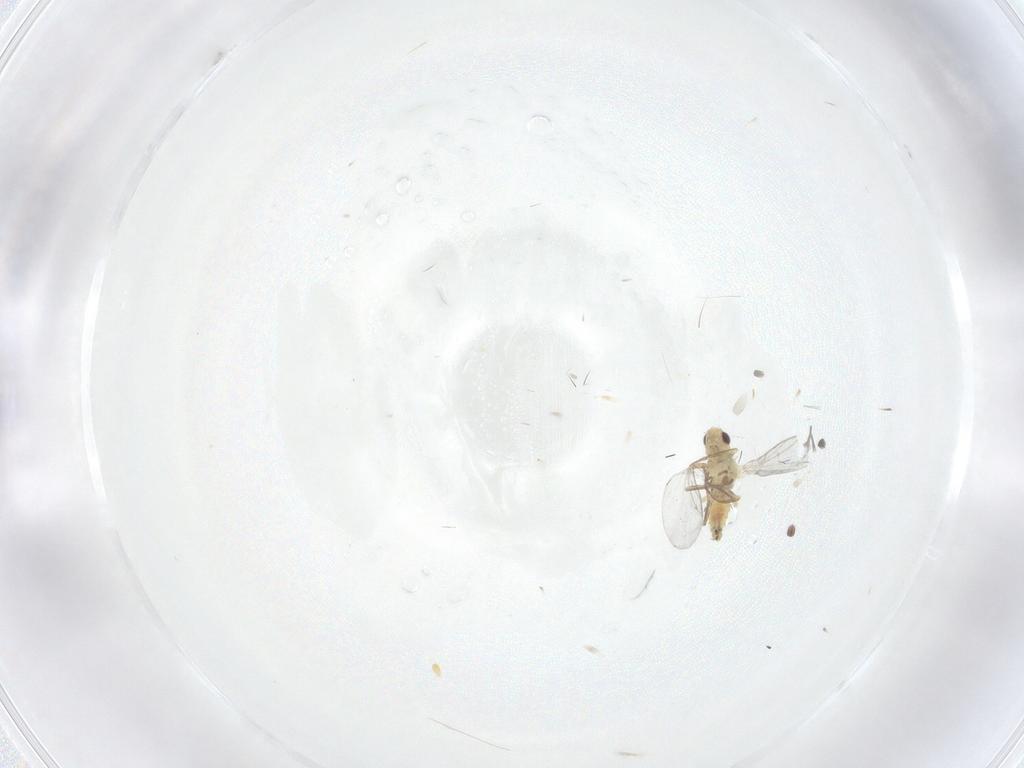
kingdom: Animalia
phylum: Arthropoda
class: Insecta
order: Diptera
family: Agromyzidae
